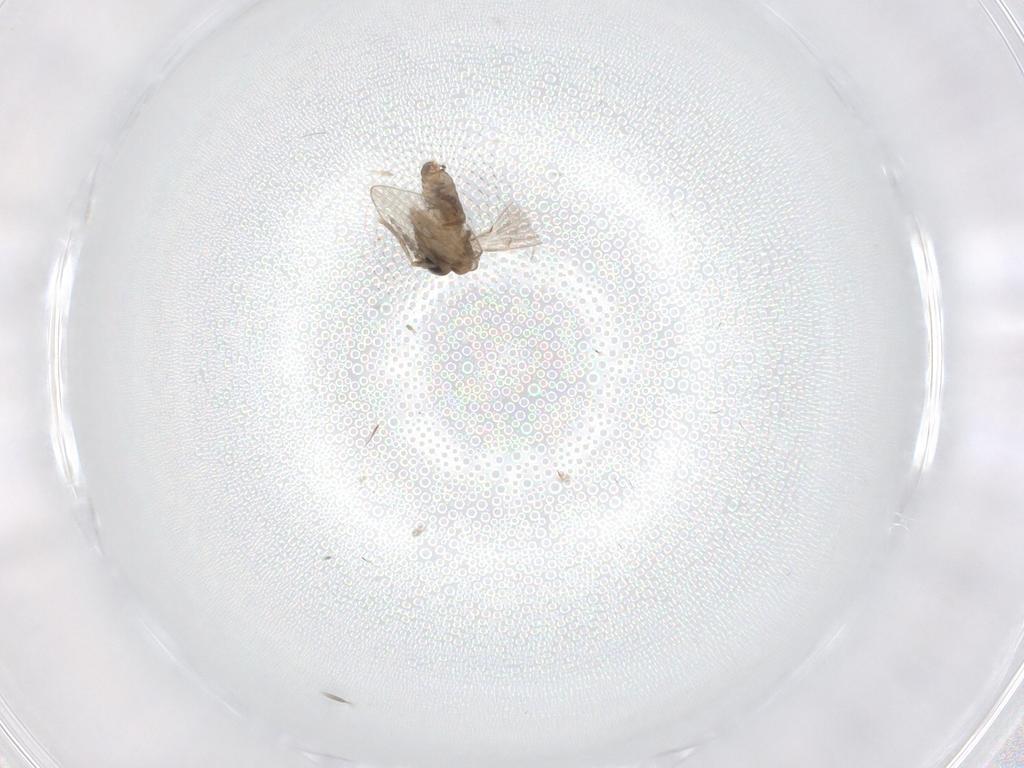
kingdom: Animalia
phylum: Arthropoda
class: Insecta
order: Diptera
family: Psychodidae
